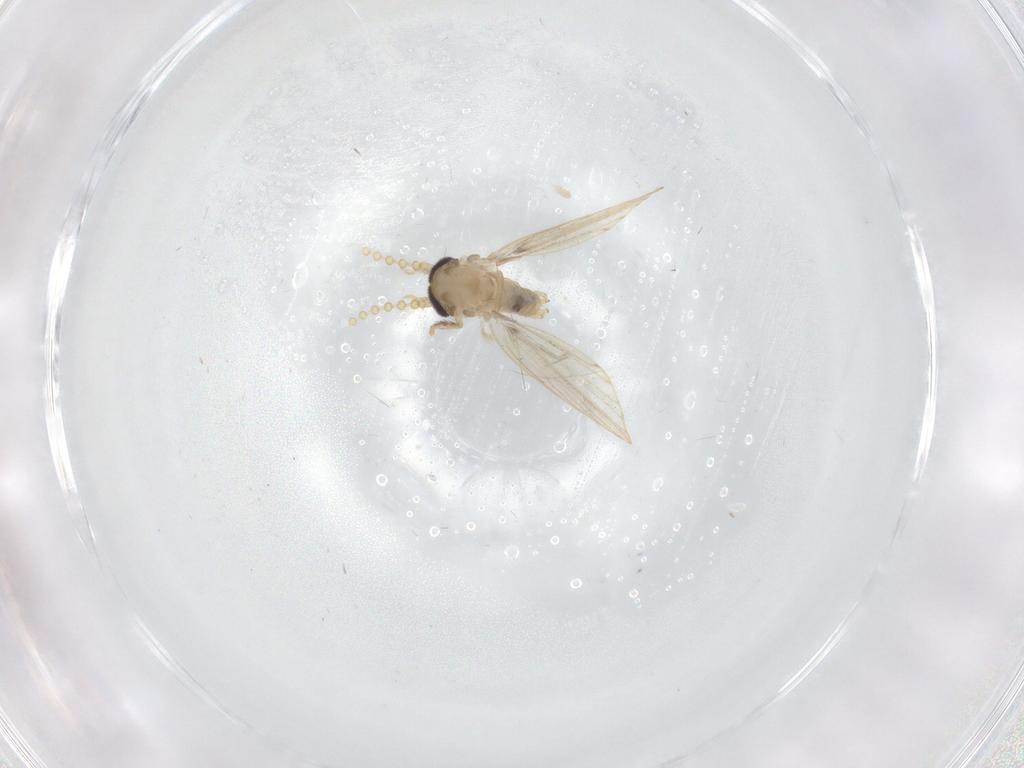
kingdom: Animalia
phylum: Arthropoda
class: Insecta
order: Diptera
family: Psychodidae
